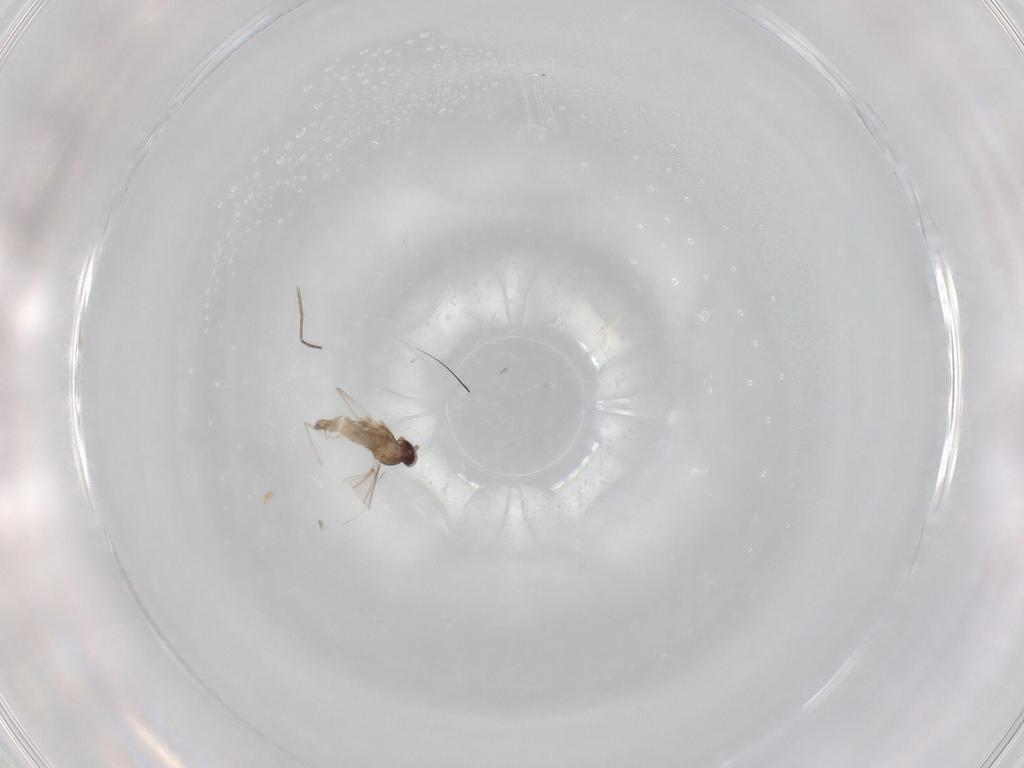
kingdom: Animalia
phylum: Arthropoda
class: Insecta
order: Diptera
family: Cecidomyiidae
